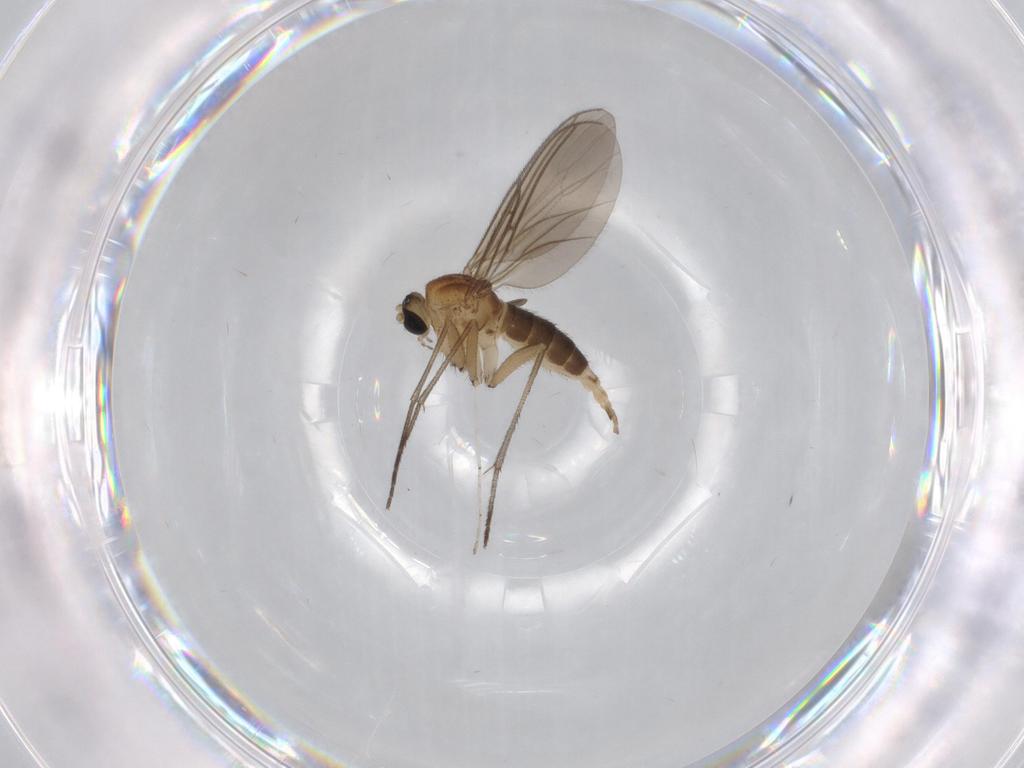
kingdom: Animalia
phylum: Arthropoda
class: Insecta
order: Diptera
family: Sciaridae
